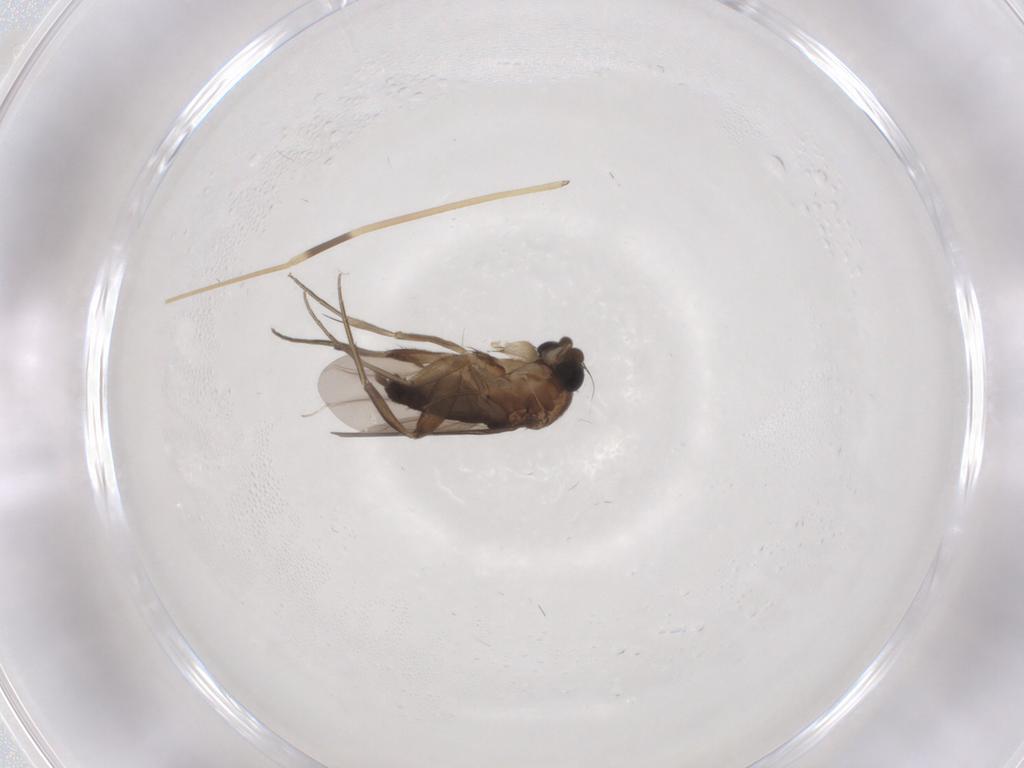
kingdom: Animalia
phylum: Arthropoda
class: Insecta
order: Diptera
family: Limoniidae
